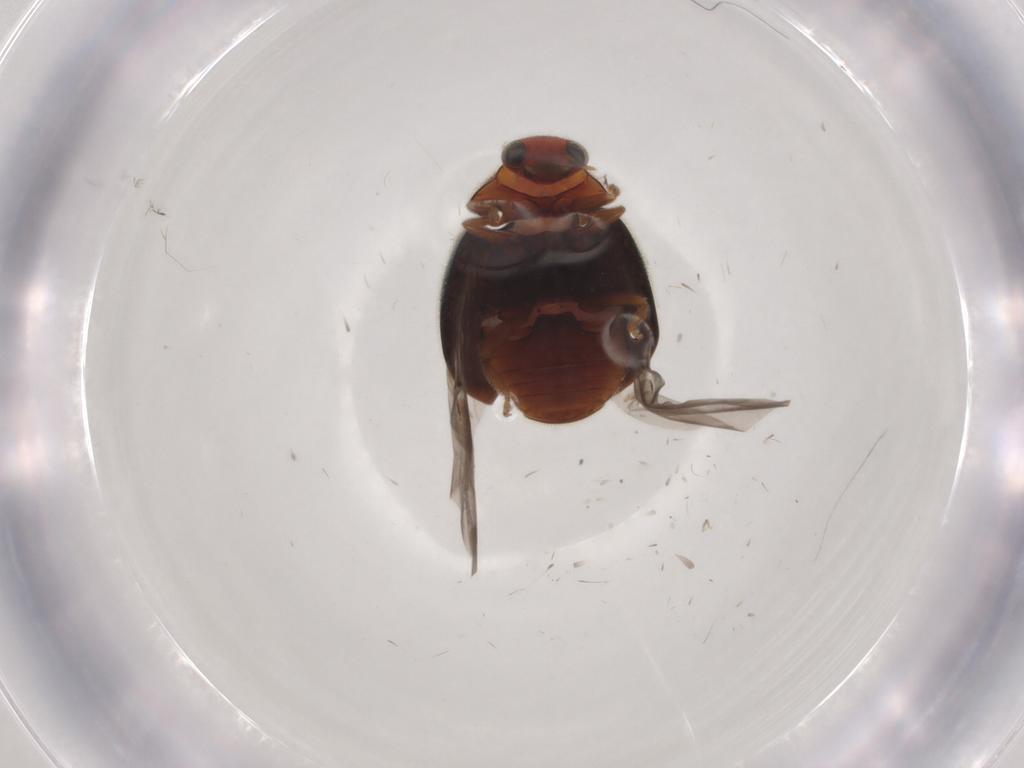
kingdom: Animalia
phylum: Arthropoda
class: Insecta
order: Coleoptera
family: Coccinellidae
